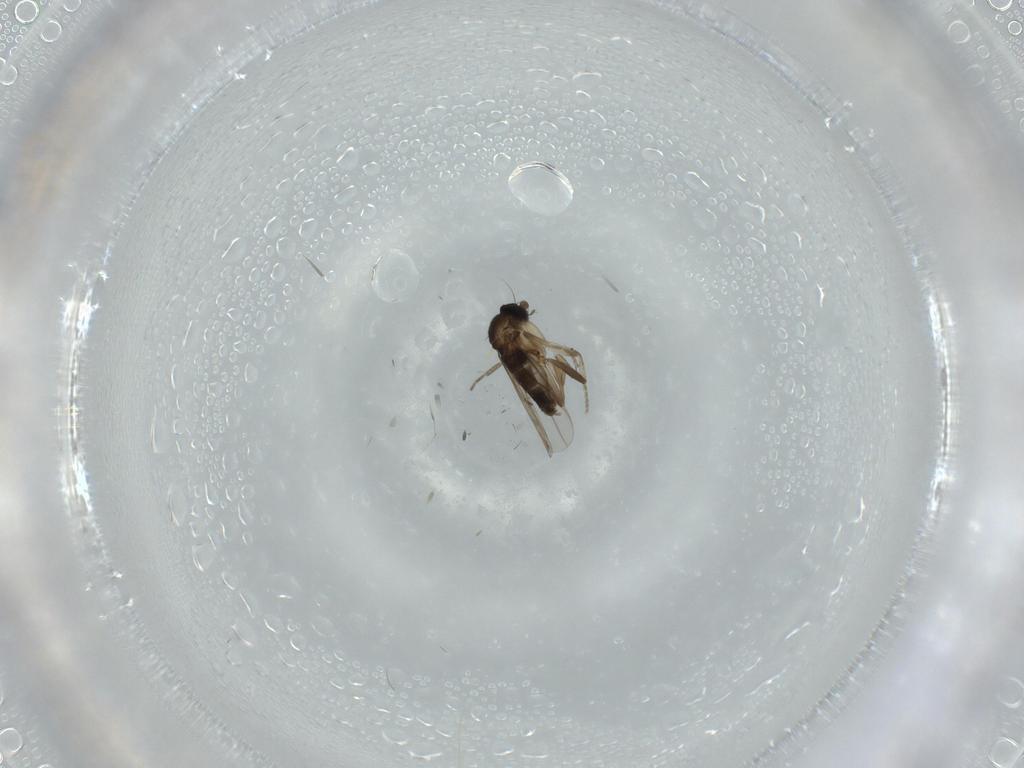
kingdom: Animalia
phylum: Arthropoda
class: Insecta
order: Diptera
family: Phoridae
